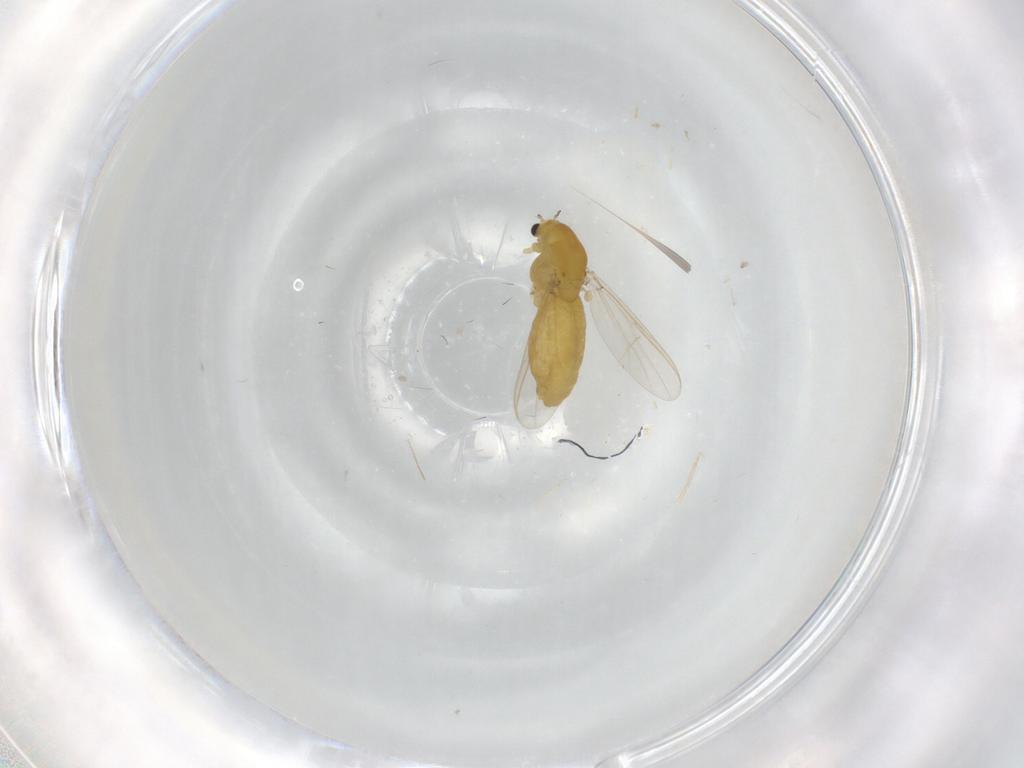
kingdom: Animalia
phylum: Arthropoda
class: Insecta
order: Diptera
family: Chironomidae
